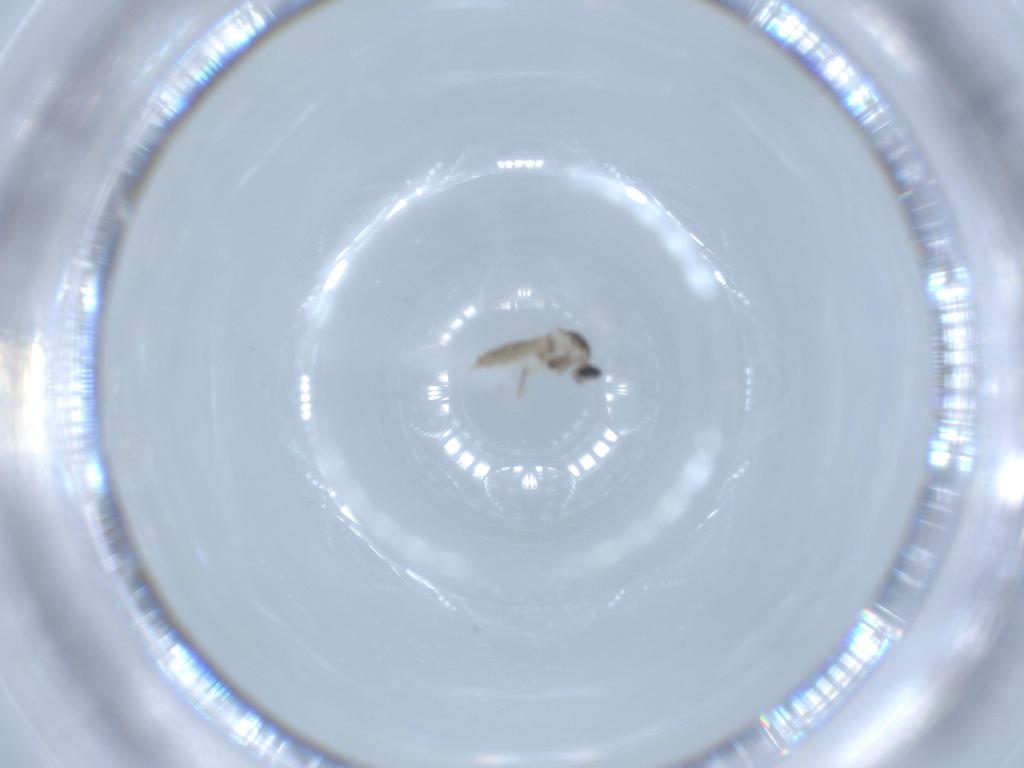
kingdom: Animalia
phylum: Arthropoda
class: Insecta
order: Diptera
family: Cecidomyiidae
